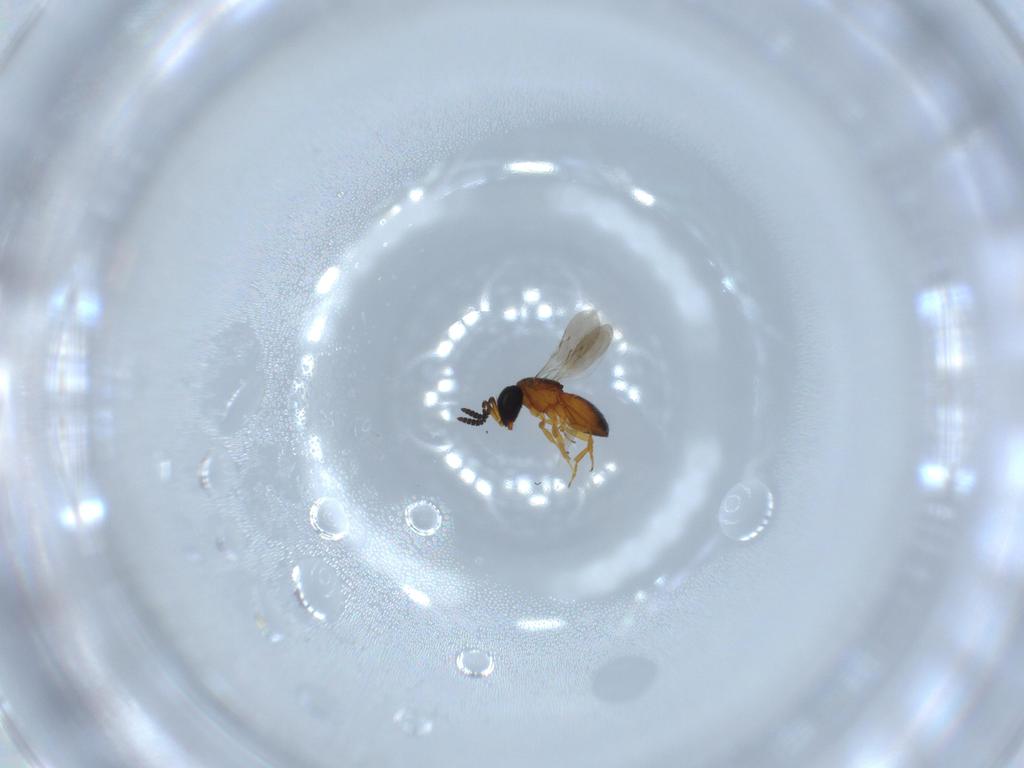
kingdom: Animalia
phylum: Arthropoda
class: Insecta
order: Hymenoptera
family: Scelionidae
